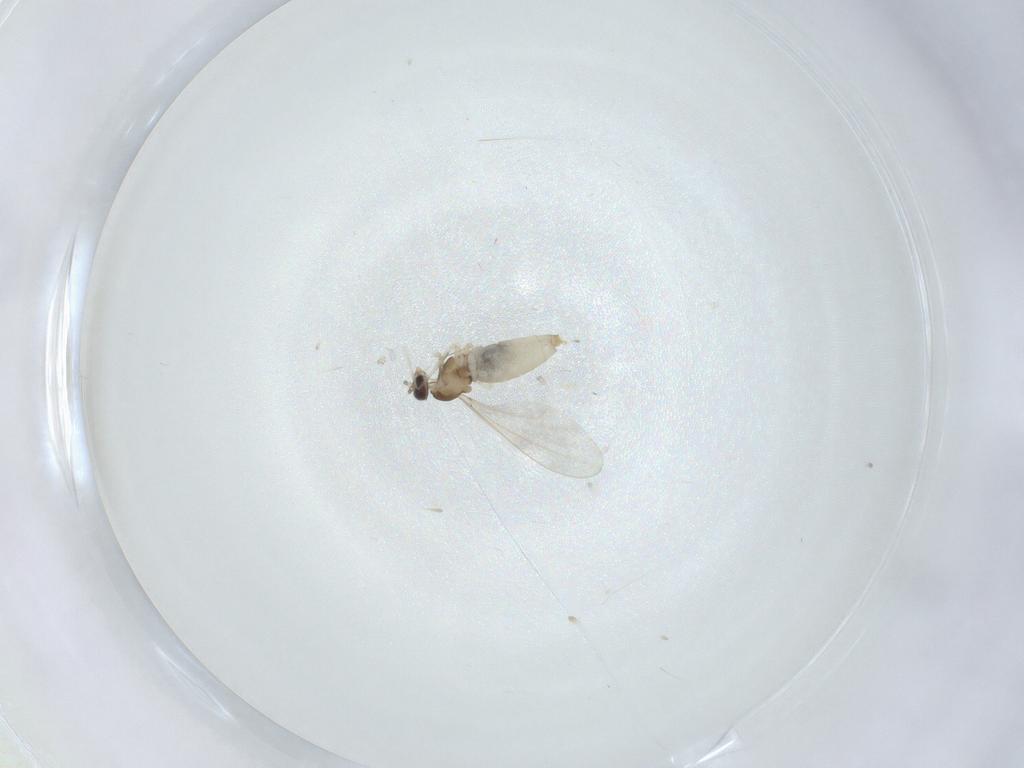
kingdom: Animalia
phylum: Arthropoda
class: Insecta
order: Diptera
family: Cecidomyiidae
